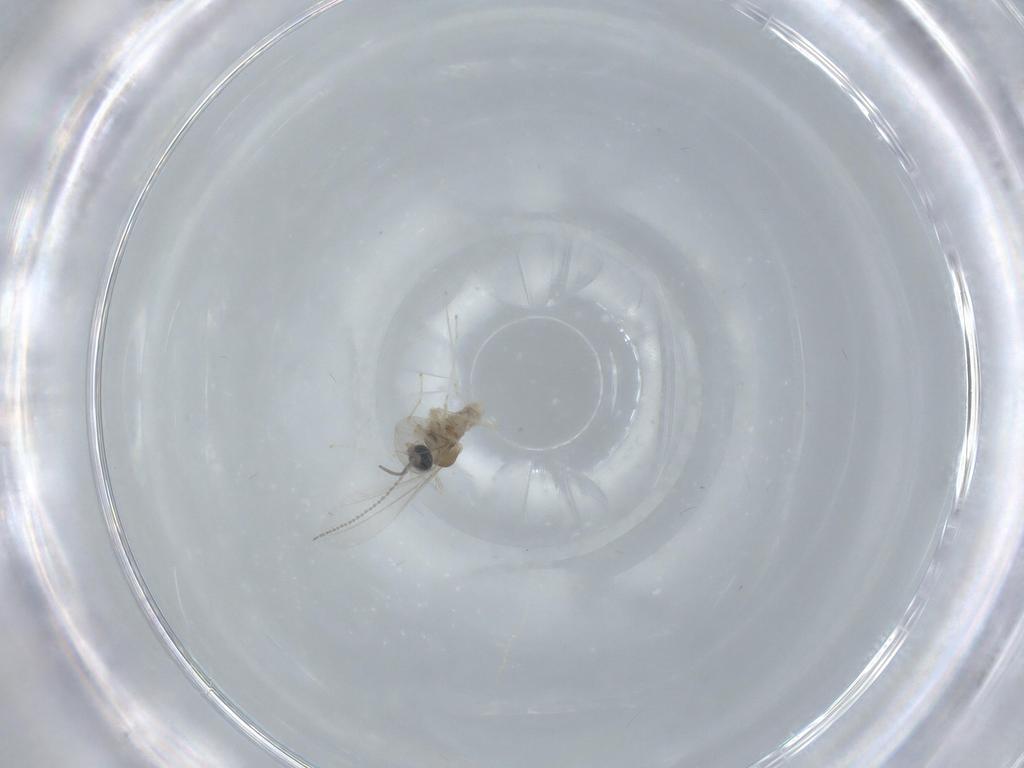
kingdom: Animalia
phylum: Arthropoda
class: Insecta
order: Diptera
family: Cecidomyiidae
